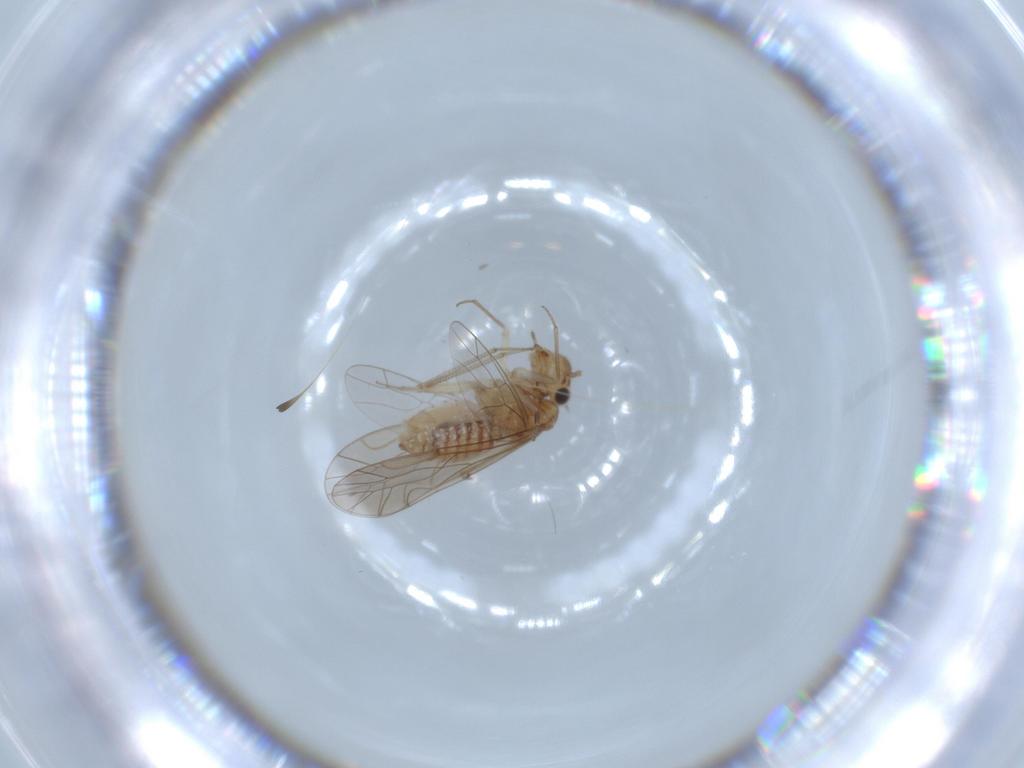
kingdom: Animalia
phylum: Arthropoda
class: Insecta
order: Psocodea
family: Lachesillidae
